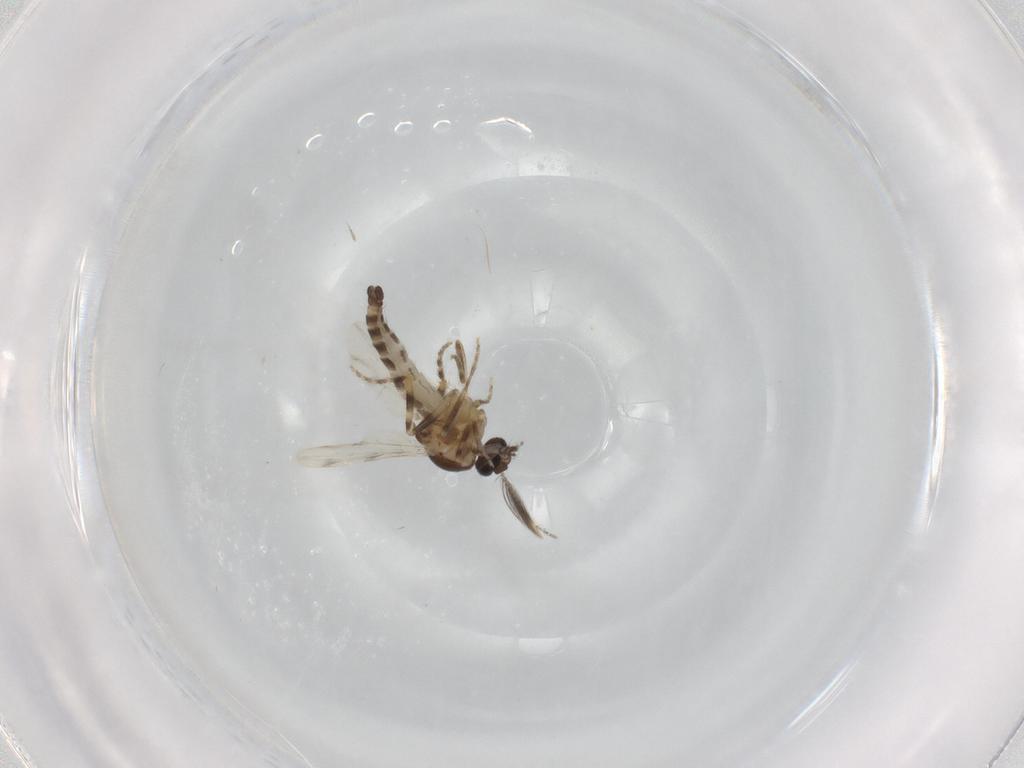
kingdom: Animalia
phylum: Arthropoda
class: Insecta
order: Diptera
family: Ceratopogonidae
